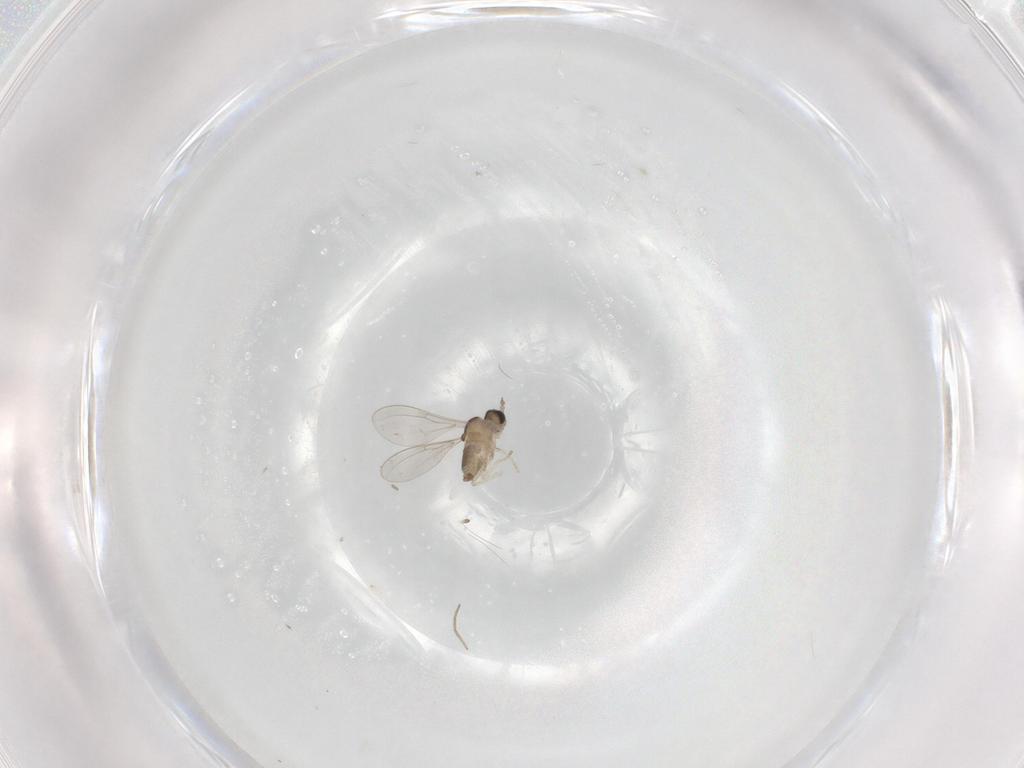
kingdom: Animalia
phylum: Arthropoda
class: Insecta
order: Diptera
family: Cecidomyiidae
